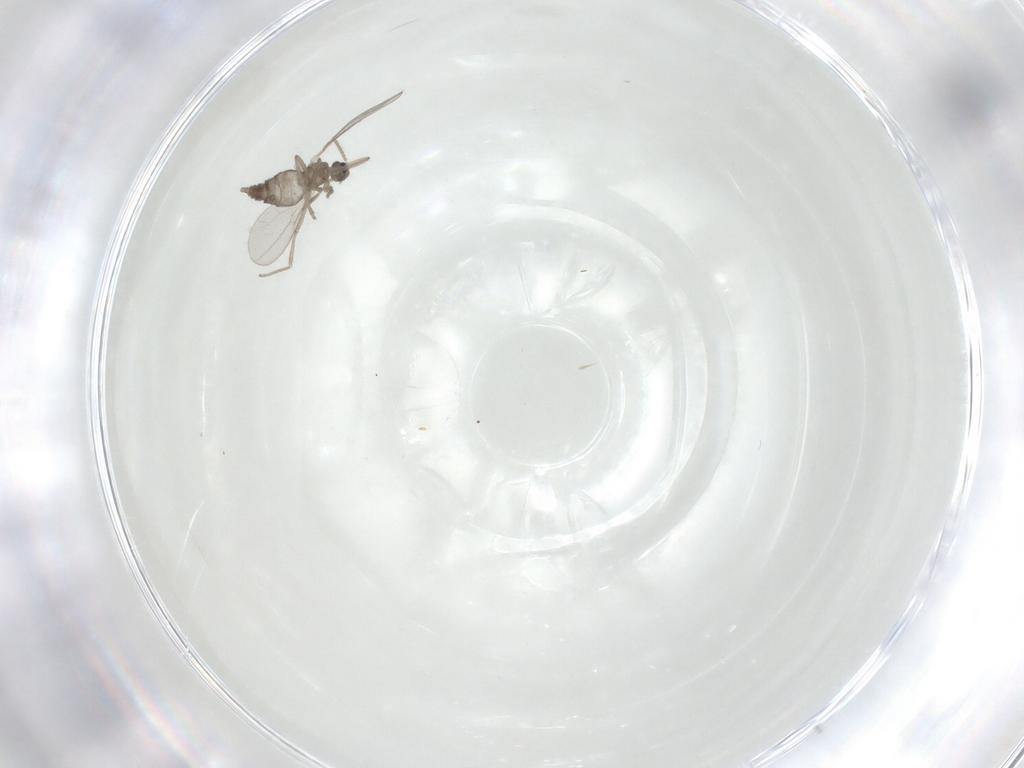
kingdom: Animalia
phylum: Arthropoda
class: Insecta
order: Diptera
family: Cecidomyiidae
